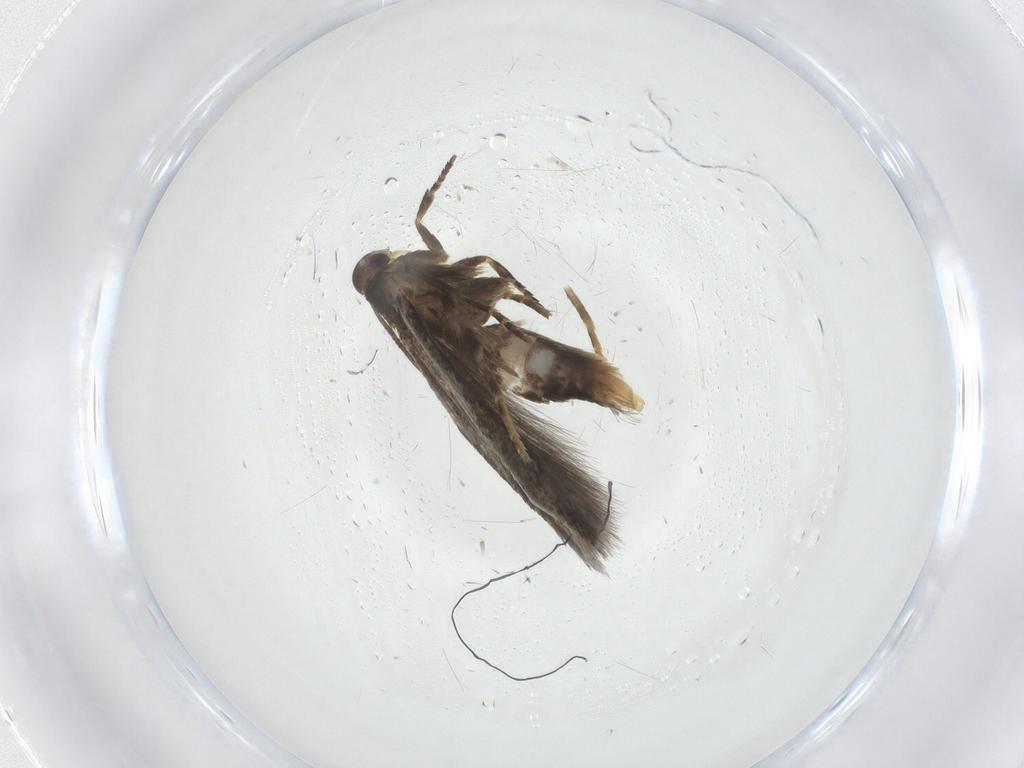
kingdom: Animalia
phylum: Arthropoda
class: Insecta
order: Lepidoptera
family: Elachistidae
